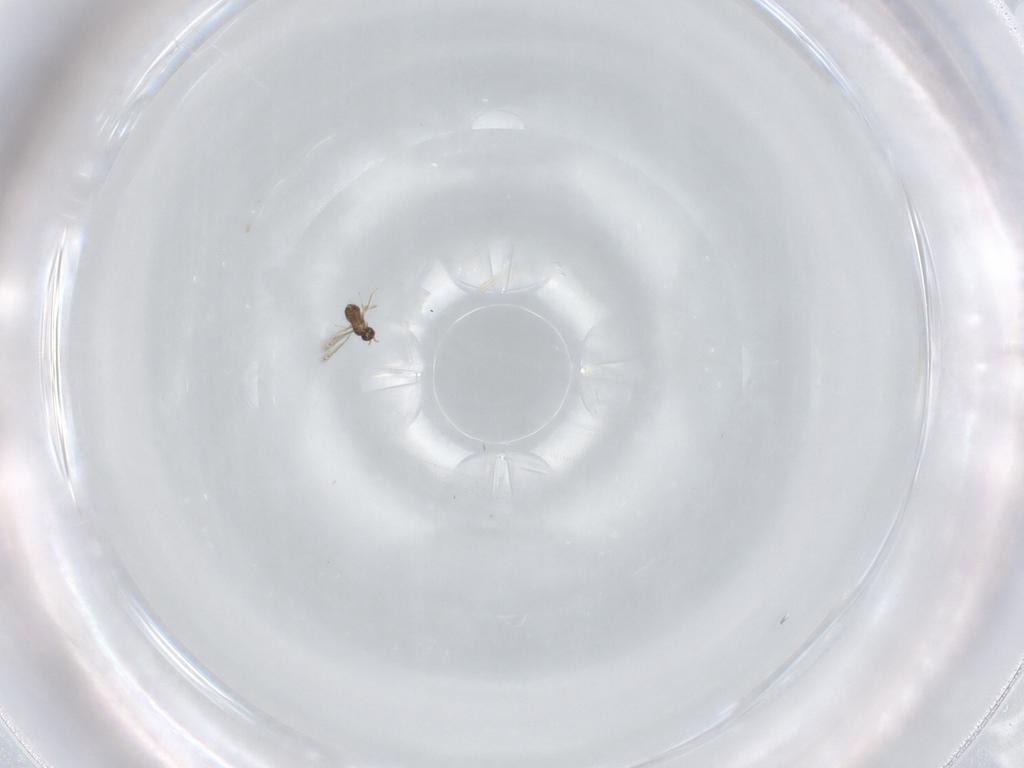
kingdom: Animalia
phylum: Arthropoda
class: Insecta
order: Hymenoptera
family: Mymaridae
